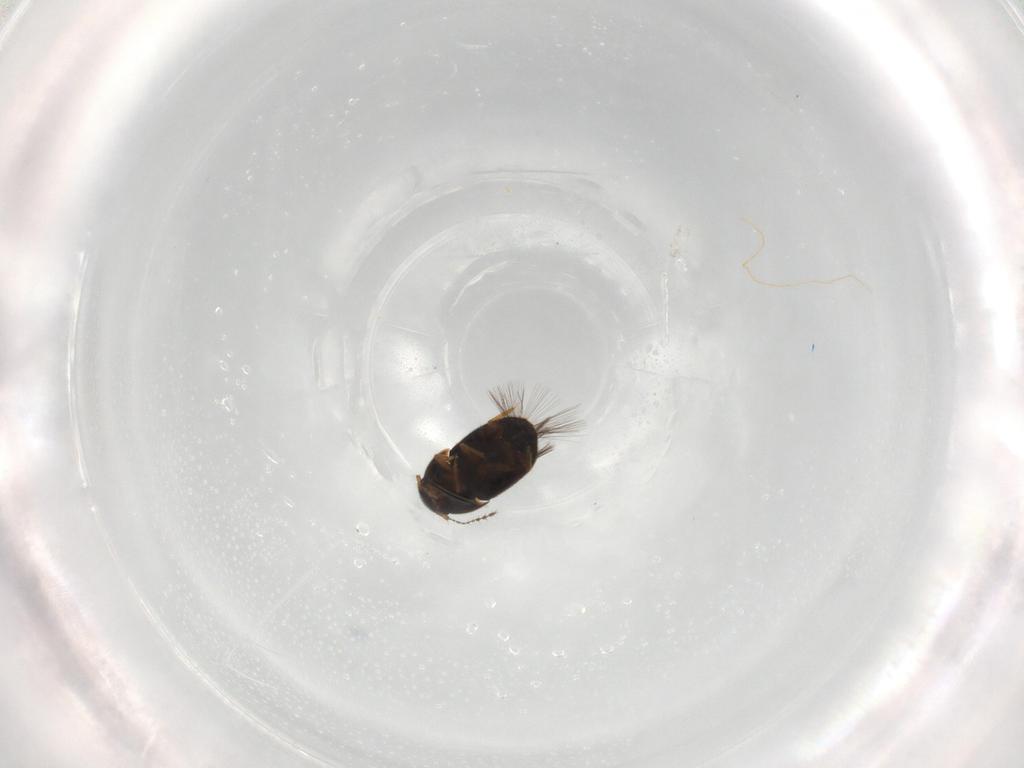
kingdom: Animalia
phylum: Arthropoda
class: Insecta
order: Coleoptera
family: Ptiliidae
